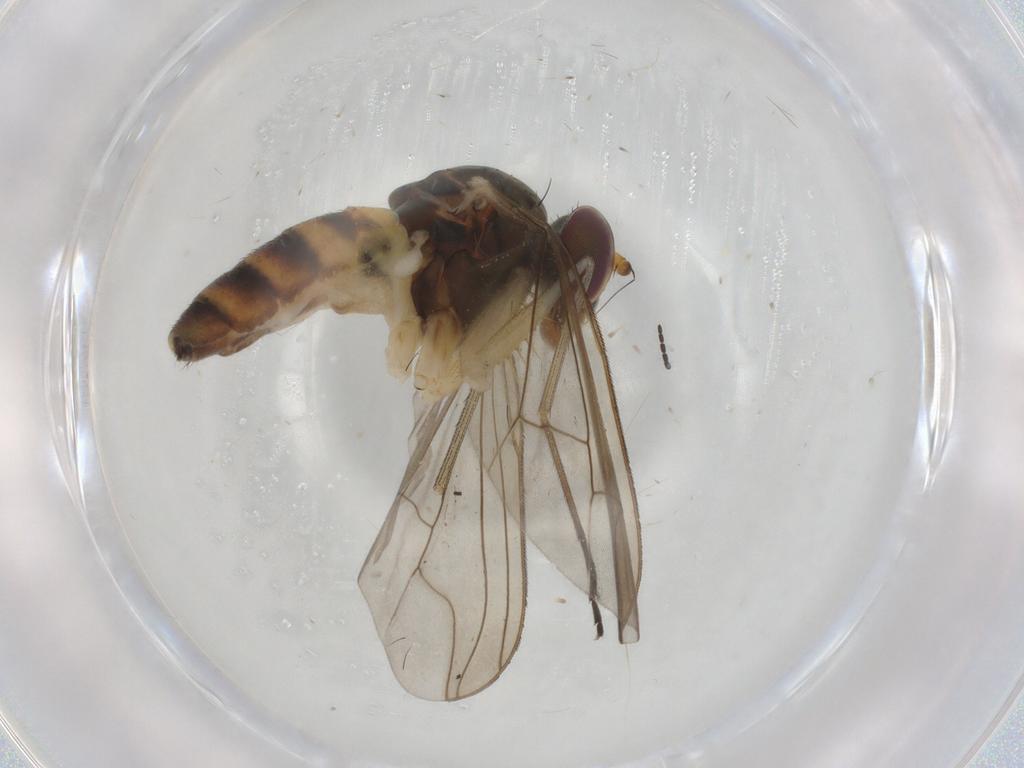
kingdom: Animalia
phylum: Arthropoda
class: Insecta
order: Diptera
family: Dolichopodidae
